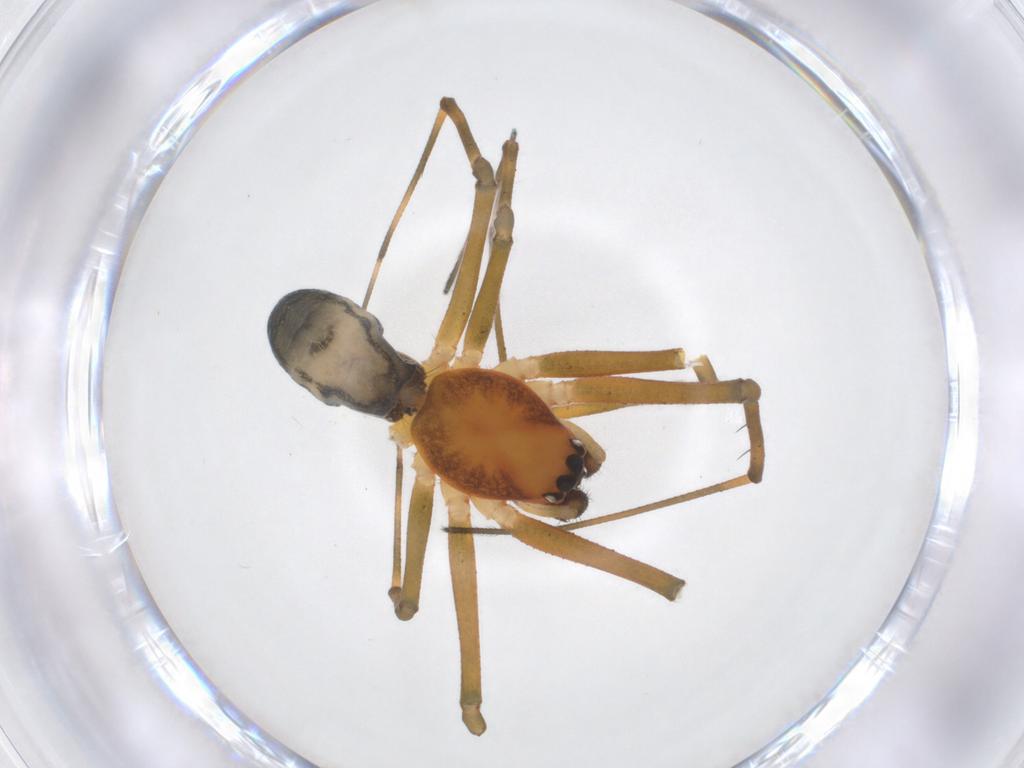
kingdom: Animalia
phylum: Arthropoda
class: Arachnida
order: Araneae
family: Linyphiidae
